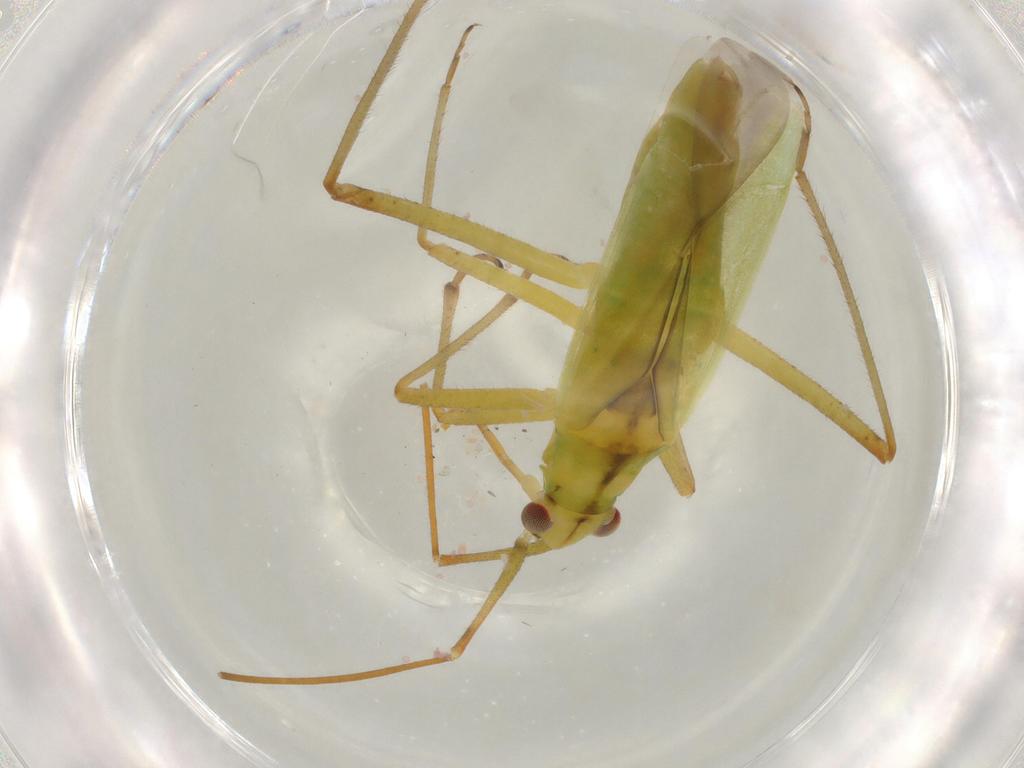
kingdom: Animalia
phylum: Arthropoda
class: Insecta
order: Hemiptera
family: Miridae
